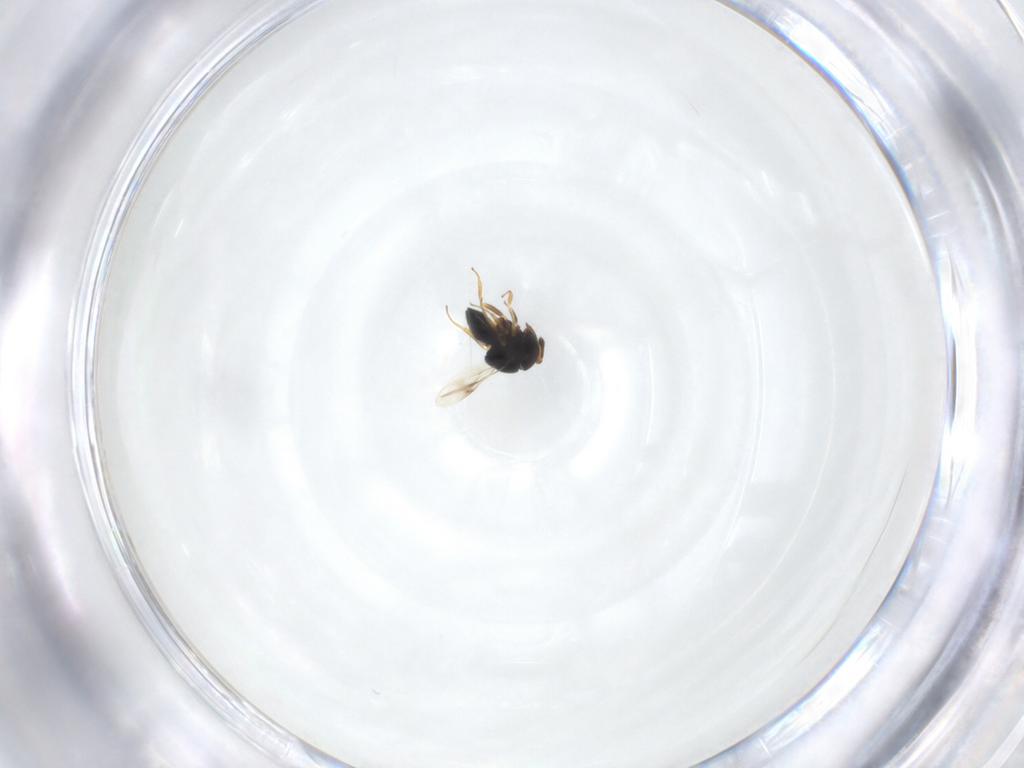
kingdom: Animalia
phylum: Arthropoda
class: Insecta
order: Hymenoptera
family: Scelionidae
